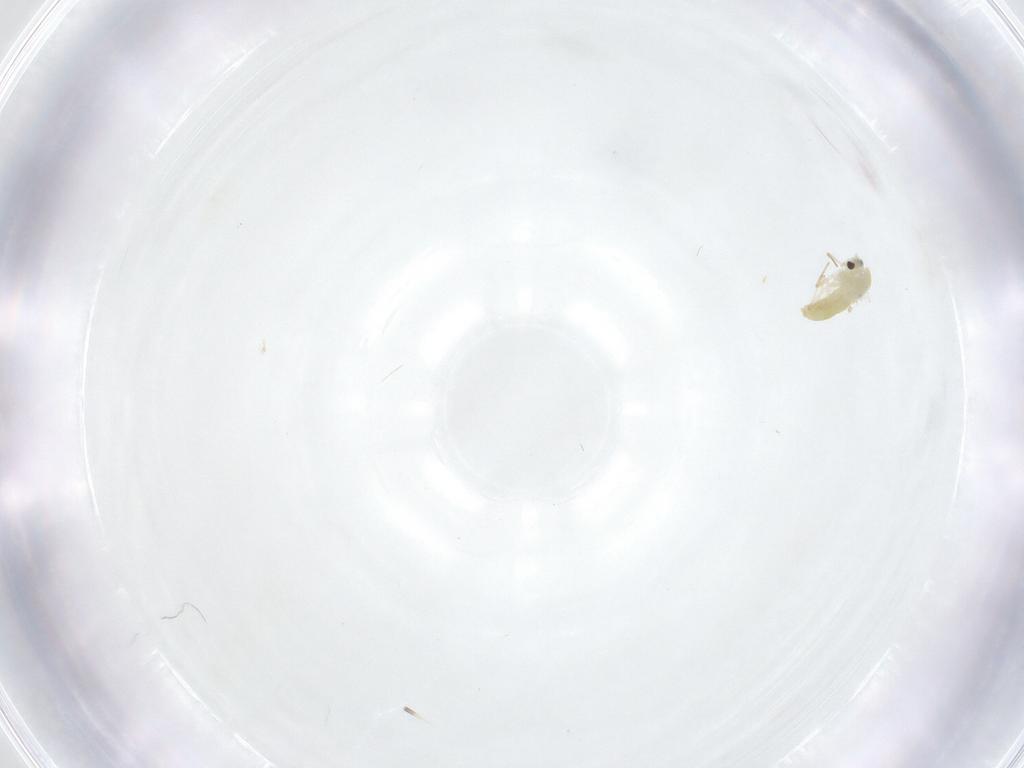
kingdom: Animalia
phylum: Arthropoda
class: Insecta
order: Diptera
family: Chironomidae
